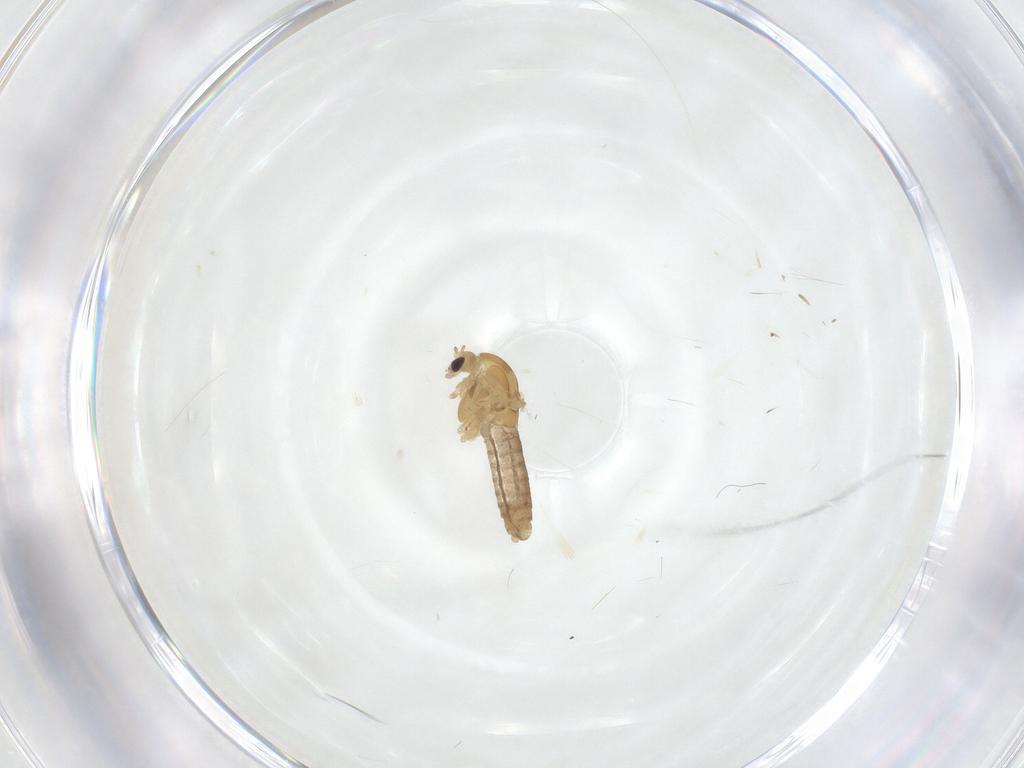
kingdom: Animalia
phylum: Arthropoda
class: Insecta
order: Diptera
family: Chironomidae
